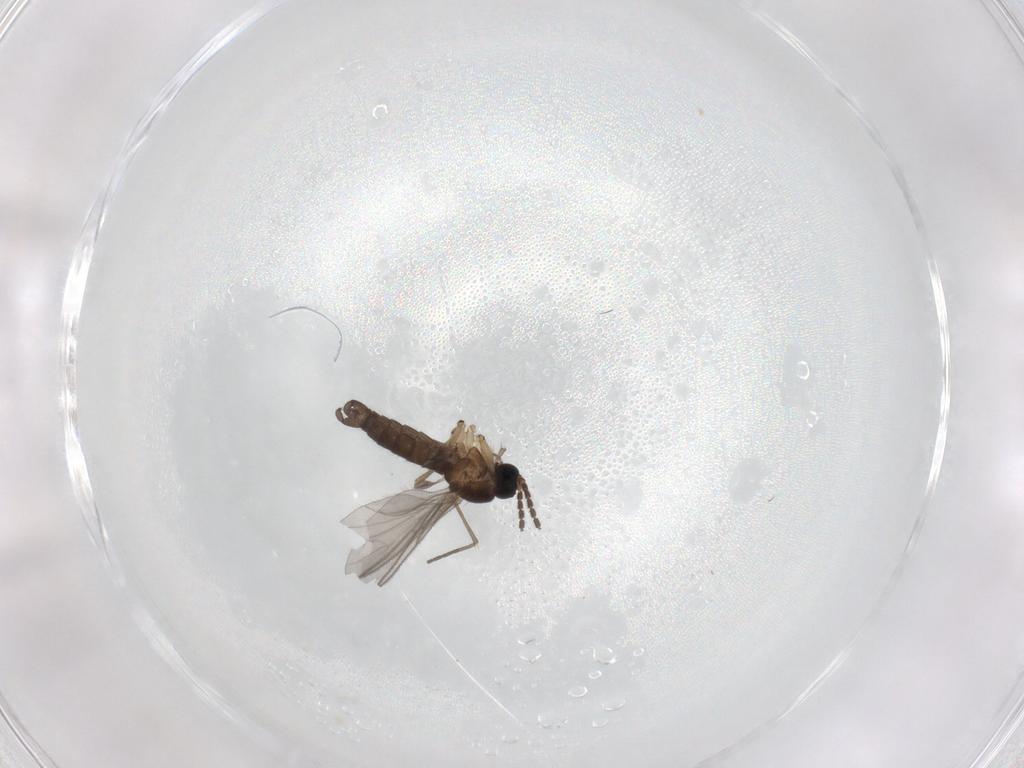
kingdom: Animalia
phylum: Arthropoda
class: Insecta
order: Diptera
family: Sciaridae
